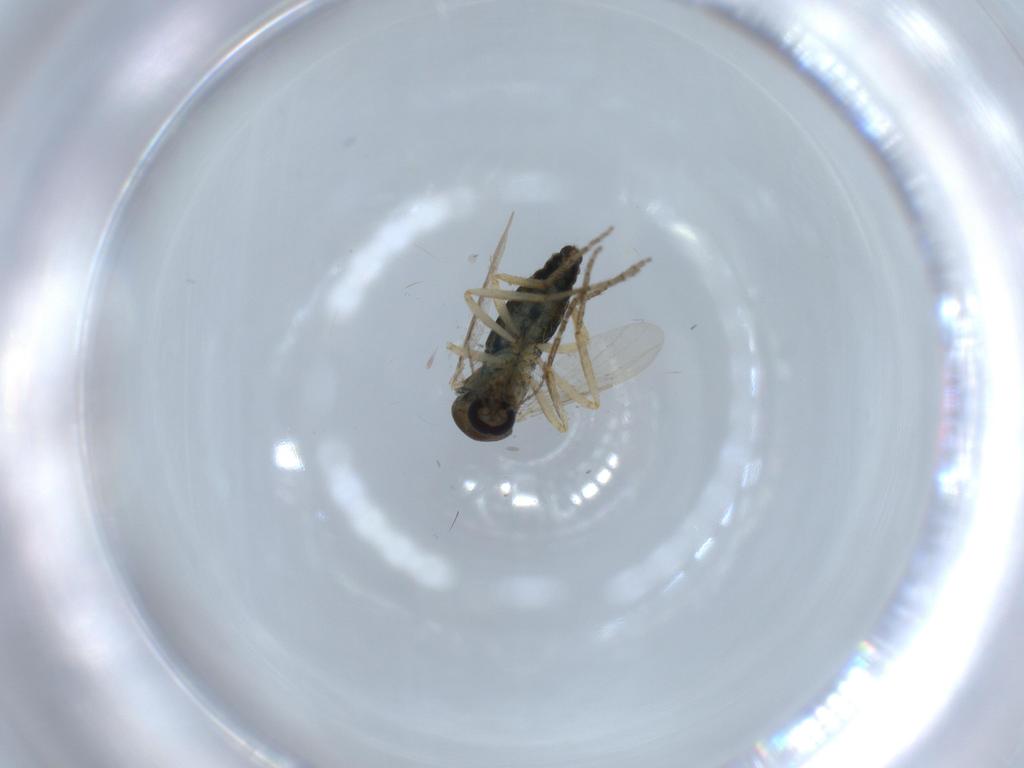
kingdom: Animalia
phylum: Arthropoda
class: Insecta
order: Diptera
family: Ceratopogonidae
